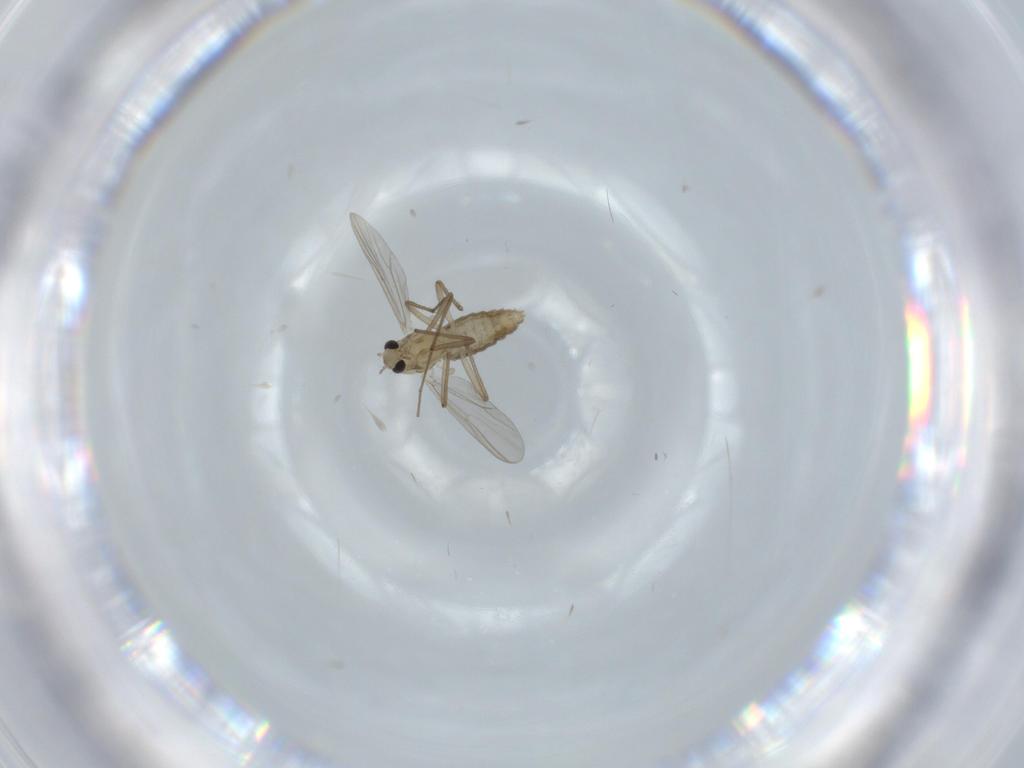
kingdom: Animalia
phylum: Arthropoda
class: Insecta
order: Diptera
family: Chironomidae
